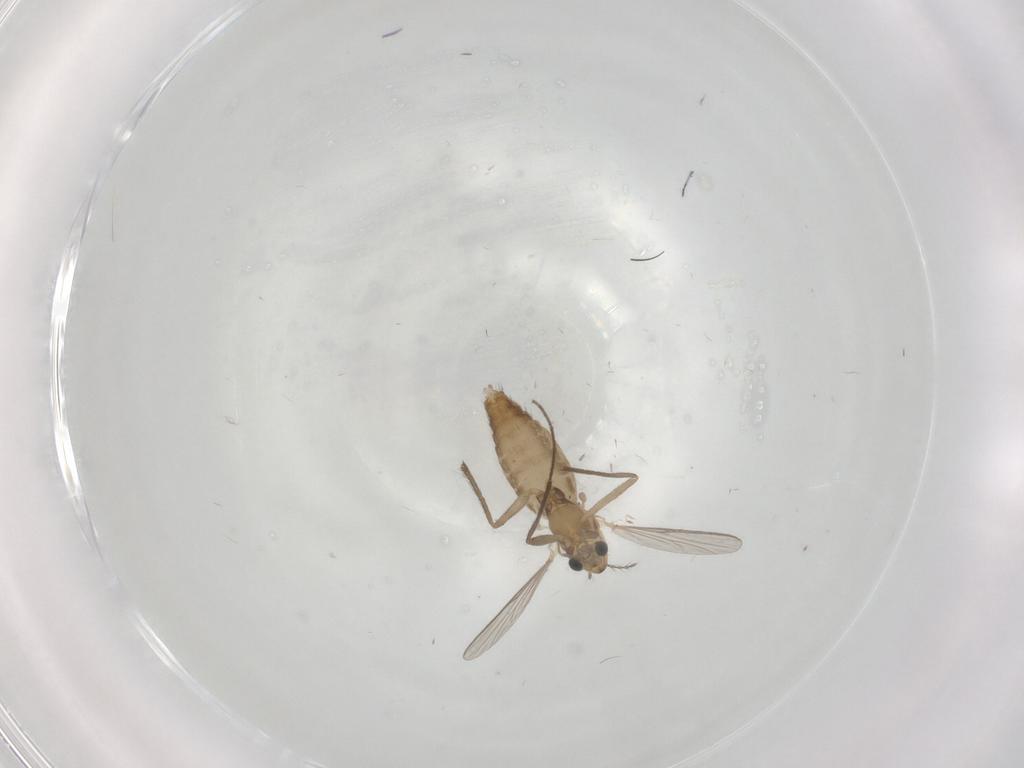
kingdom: Animalia
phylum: Arthropoda
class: Insecta
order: Diptera
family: Chironomidae
